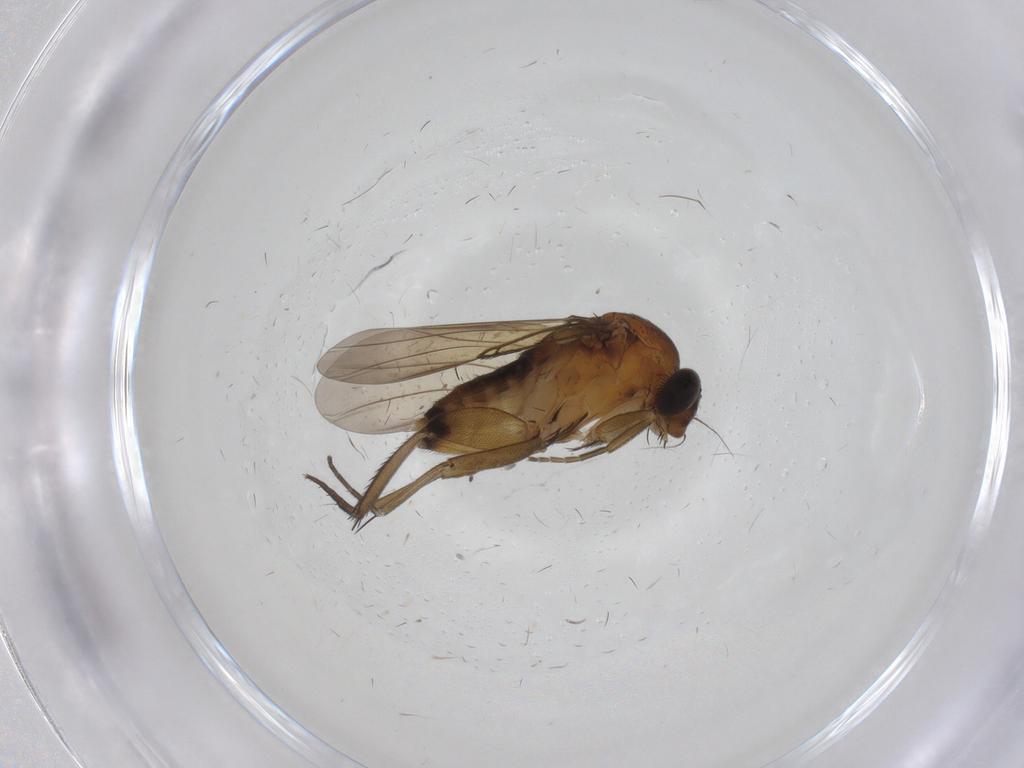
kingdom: Animalia
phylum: Arthropoda
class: Insecta
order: Diptera
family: Phoridae
